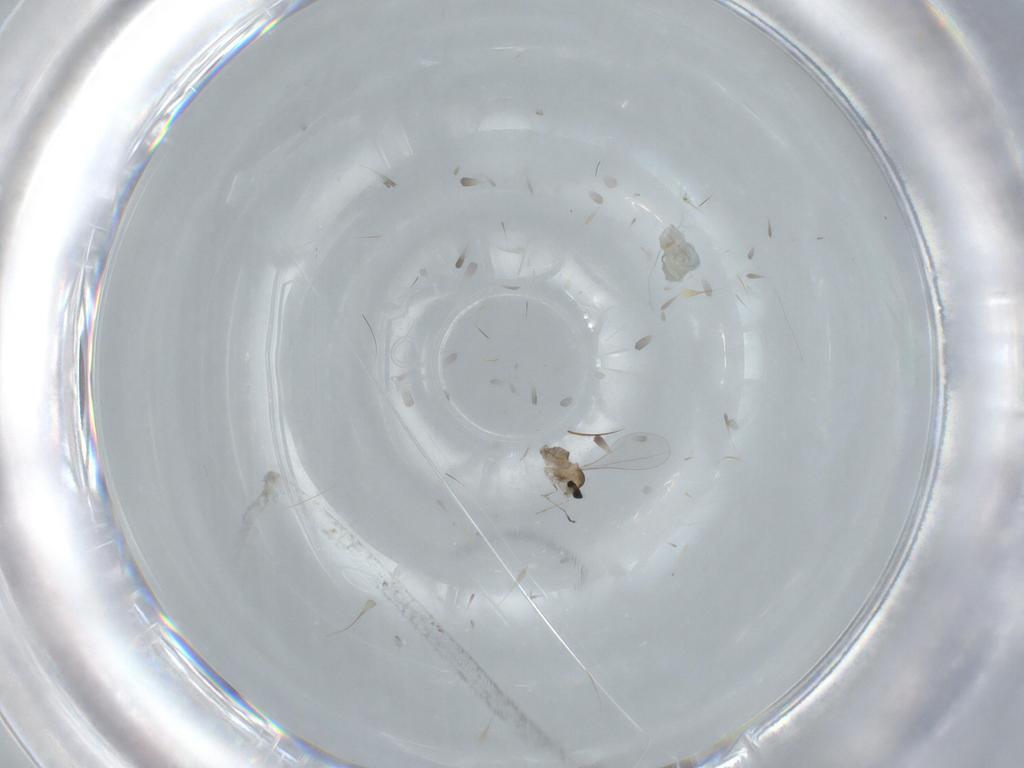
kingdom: Animalia
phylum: Arthropoda
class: Insecta
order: Diptera
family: Cecidomyiidae
